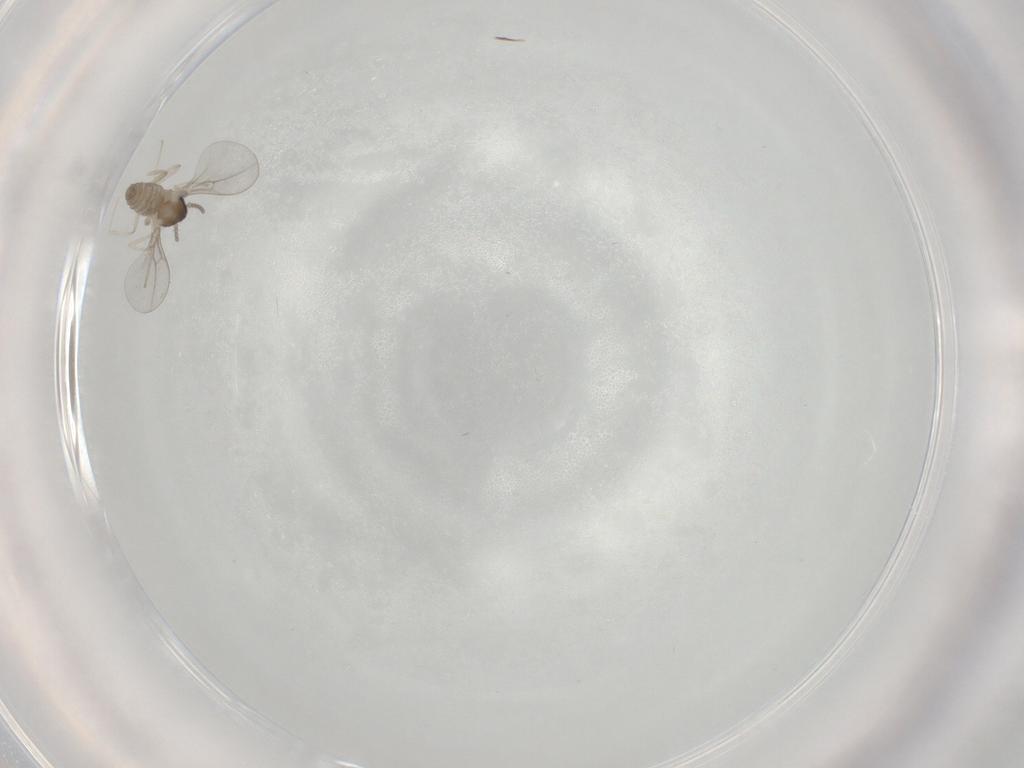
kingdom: Animalia
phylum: Arthropoda
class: Insecta
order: Diptera
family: Cecidomyiidae
